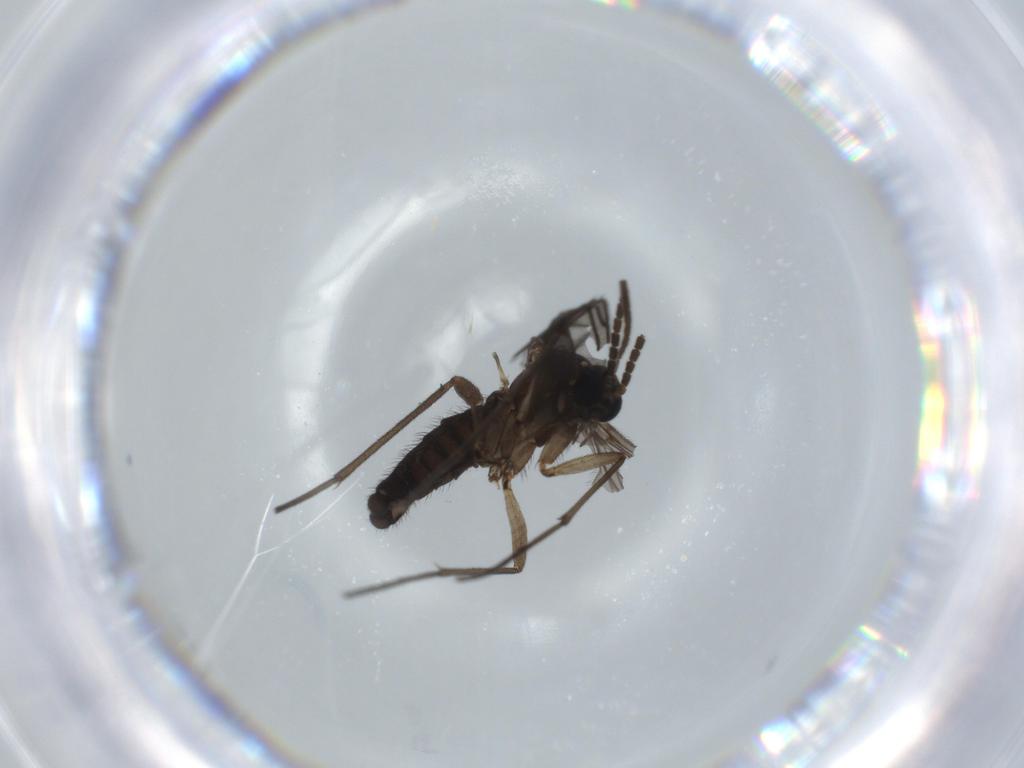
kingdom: Animalia
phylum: Arthropoda
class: Insecta
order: Diptera
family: Sciaridae
